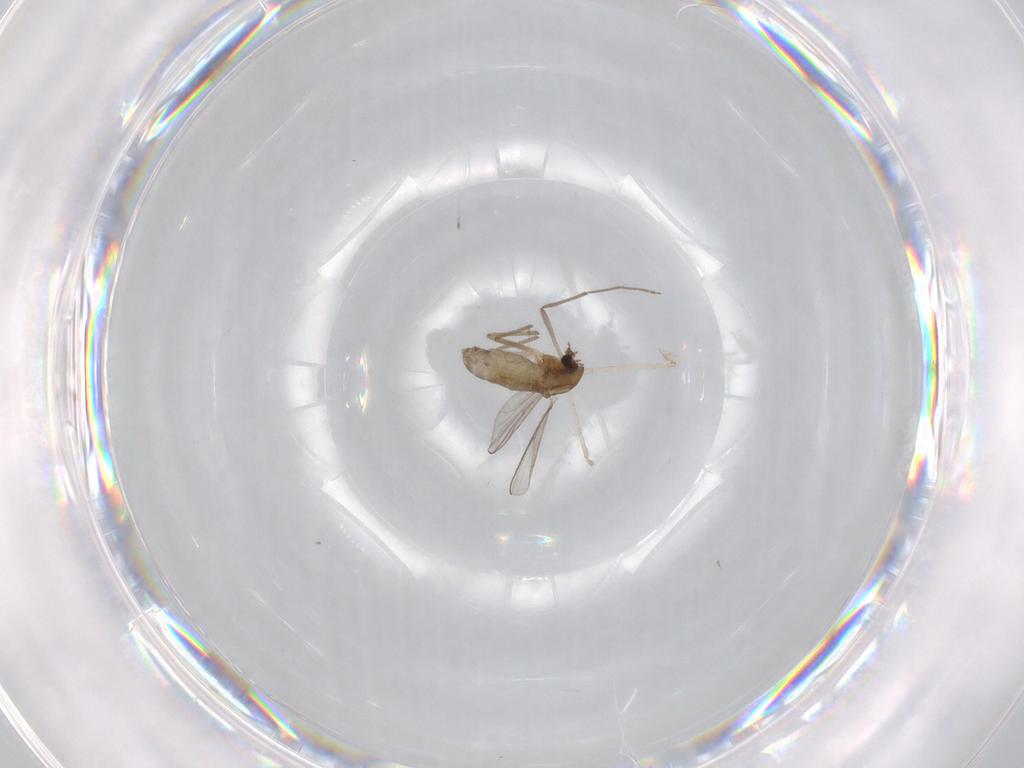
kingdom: Animalia
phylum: Arthropoda
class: Insecta
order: Diptera
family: Chironomidae
